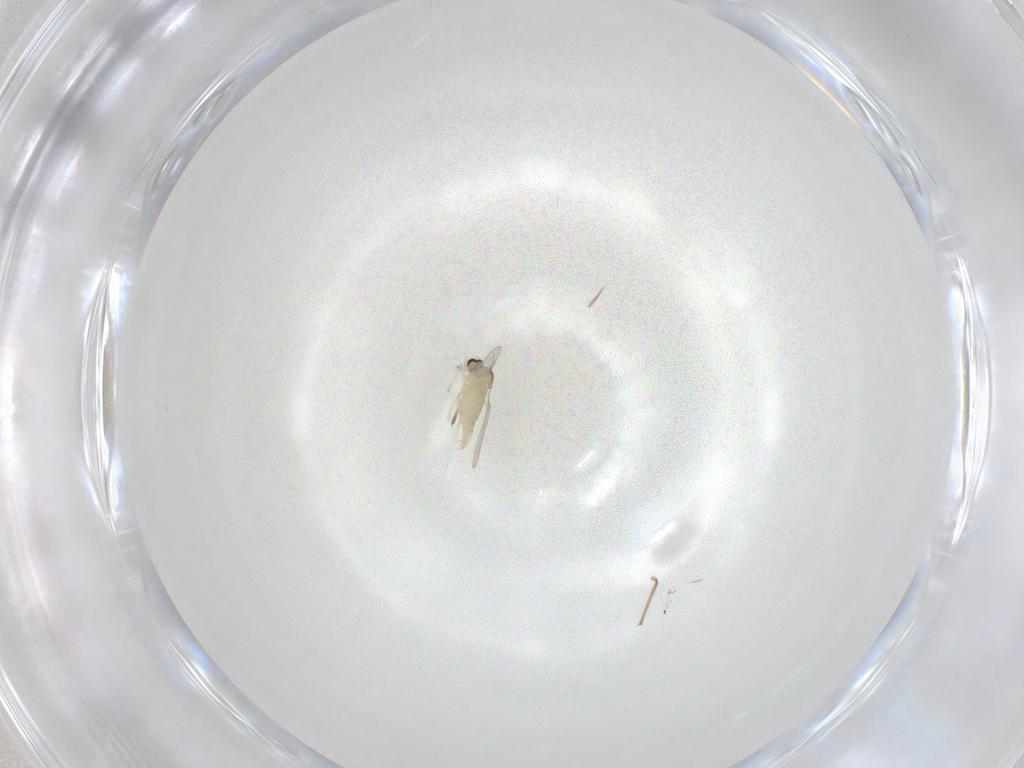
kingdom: Animalia
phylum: Arthropoda
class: Insecta
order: Diptera
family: Cecidomyiidae
